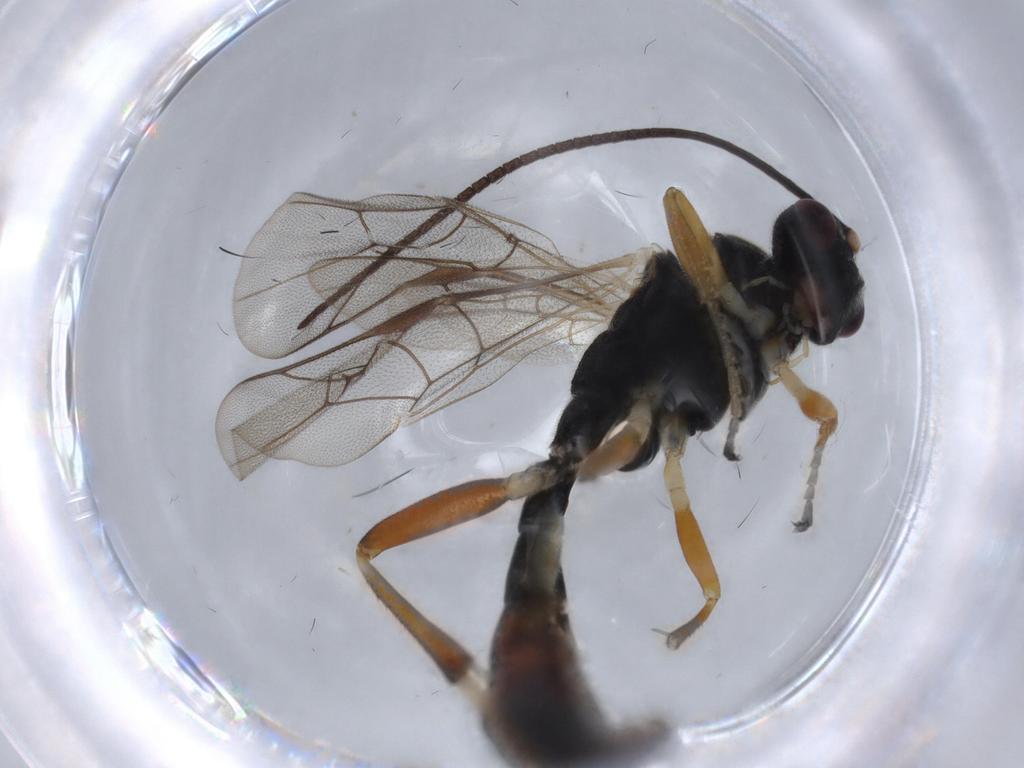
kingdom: Animalia
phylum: Arthropoda
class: Insecta
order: Hymenoptera
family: Ichneumonidae
